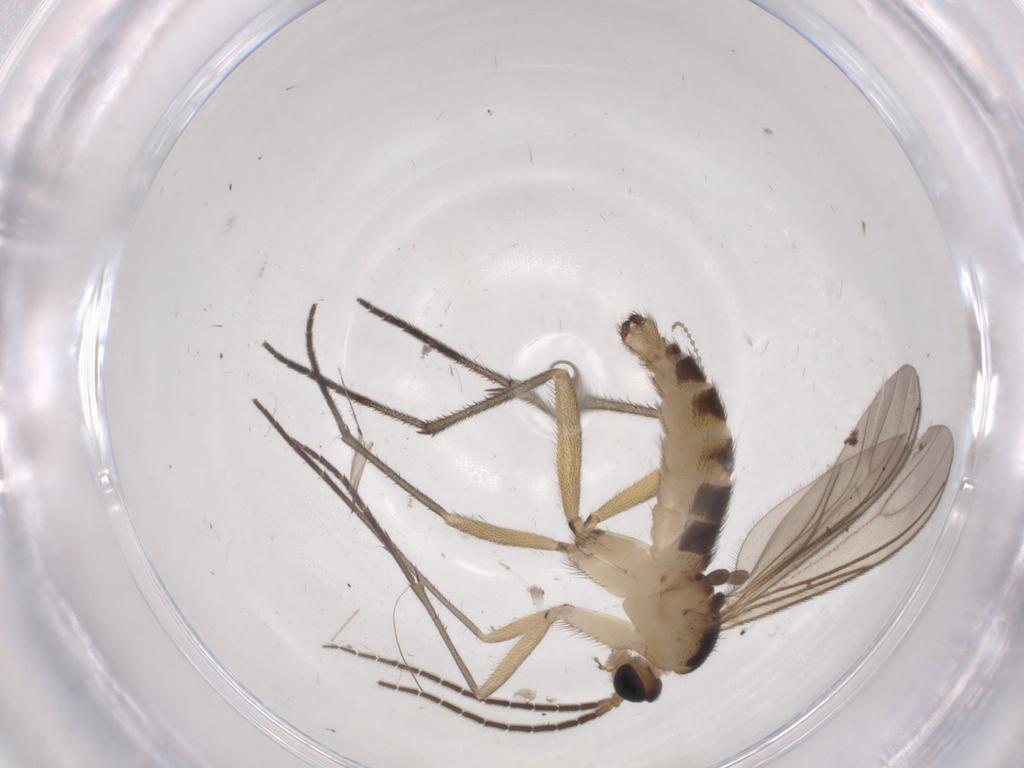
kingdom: Animalia
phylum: Arthropoda
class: Insecta
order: Diptera
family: Sciaridae
